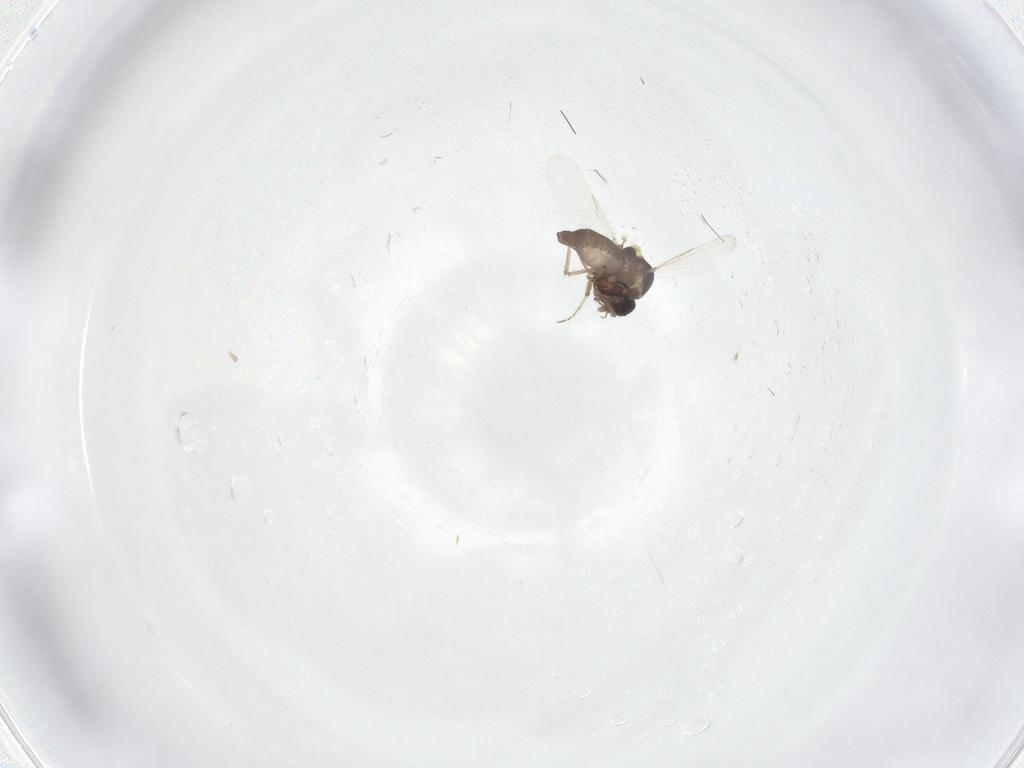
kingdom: Animalia
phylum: Arthropoda
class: Insecta
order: Diptera
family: Ceratopogonidae
